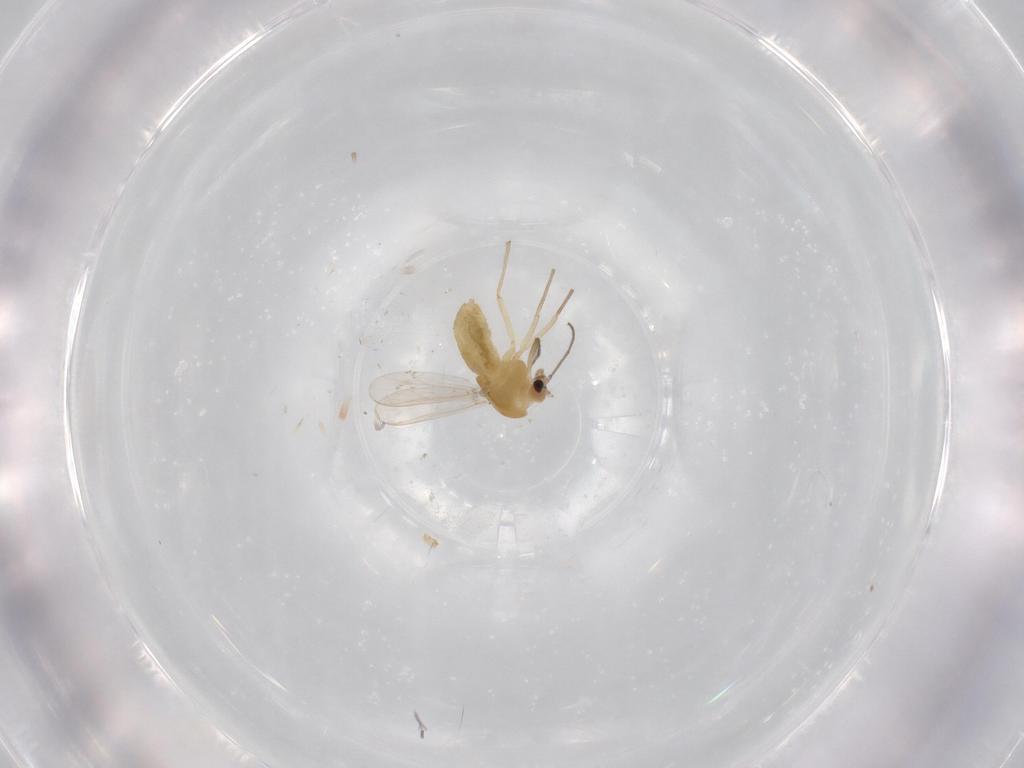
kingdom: Animalia
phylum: Arthropoda
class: Insecta
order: Diptera
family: Chironomidae
